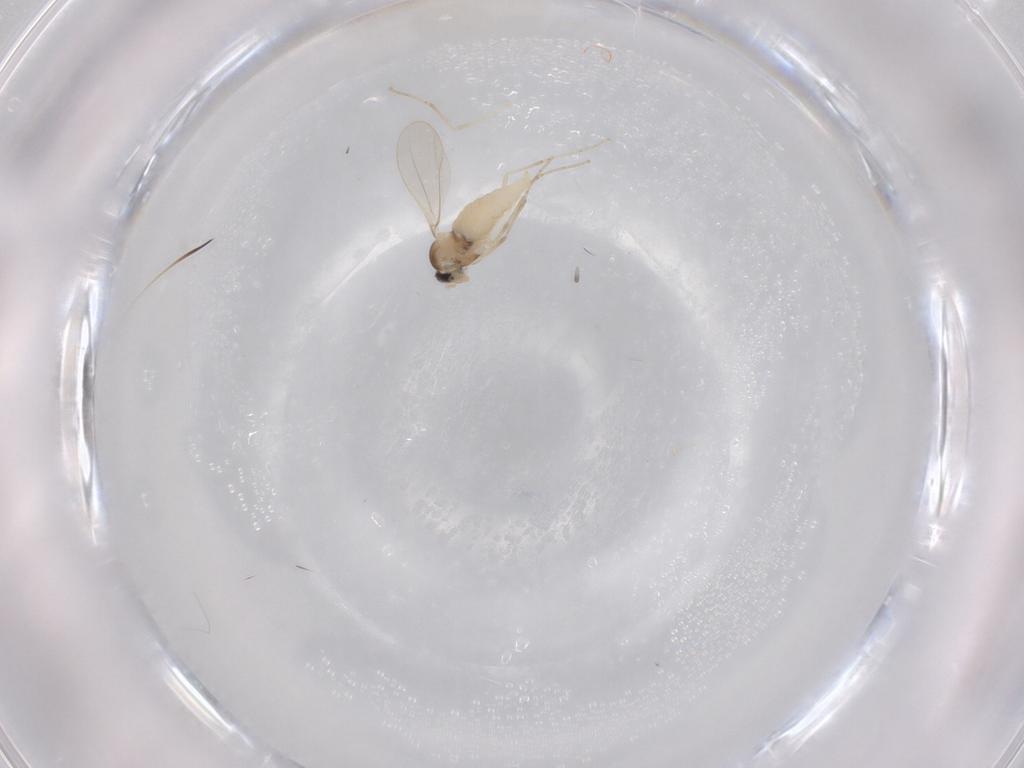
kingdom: Animalia
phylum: Arthropoda
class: Insecta
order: Diptera
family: Cecidomyiidae
